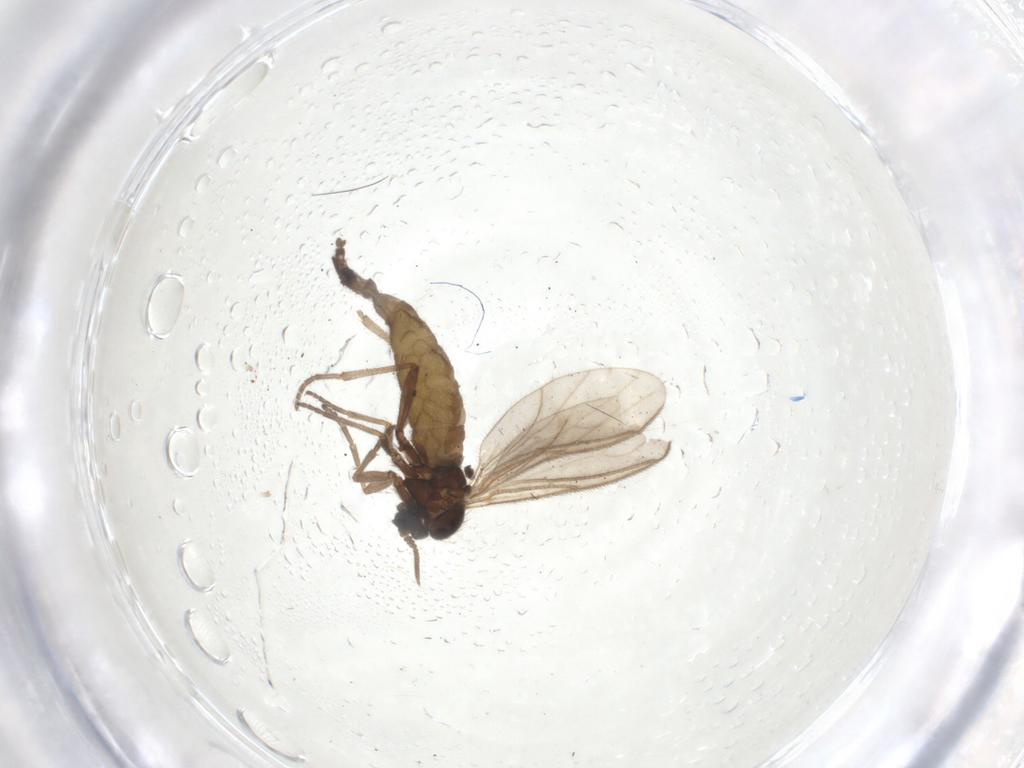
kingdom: Animalia
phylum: Arthropoda
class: Insecta
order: Diptera
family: Sciaridae
